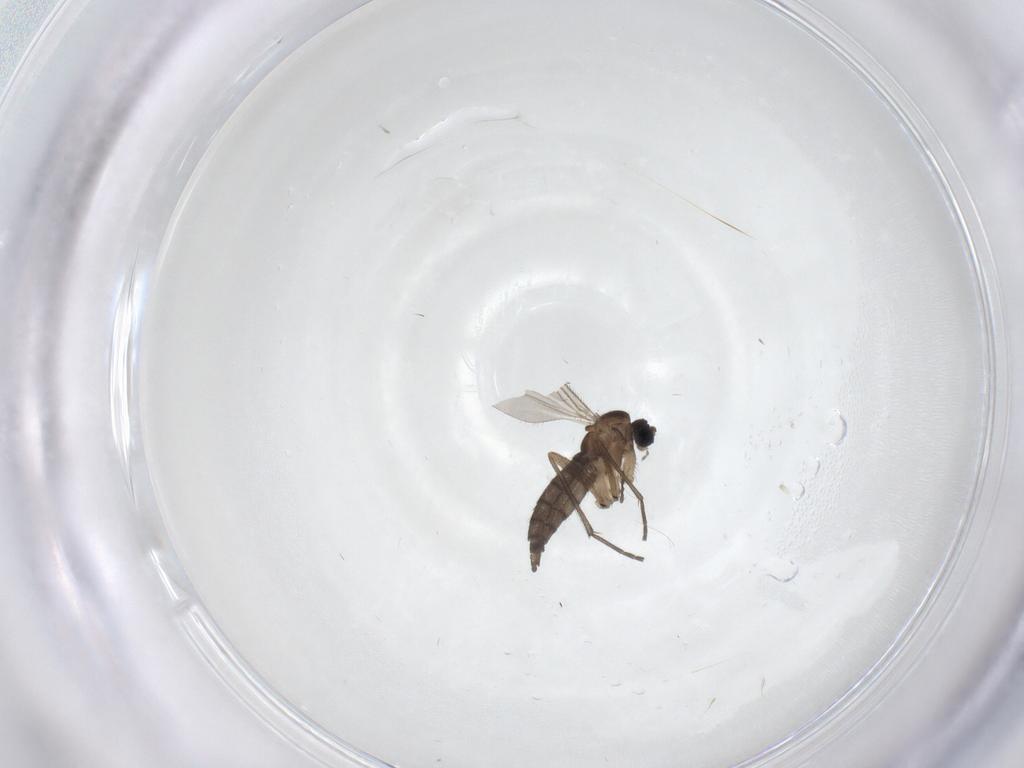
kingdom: Animalia
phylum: Arthropoda
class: Insecta
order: Diptera
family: Sciaridae
